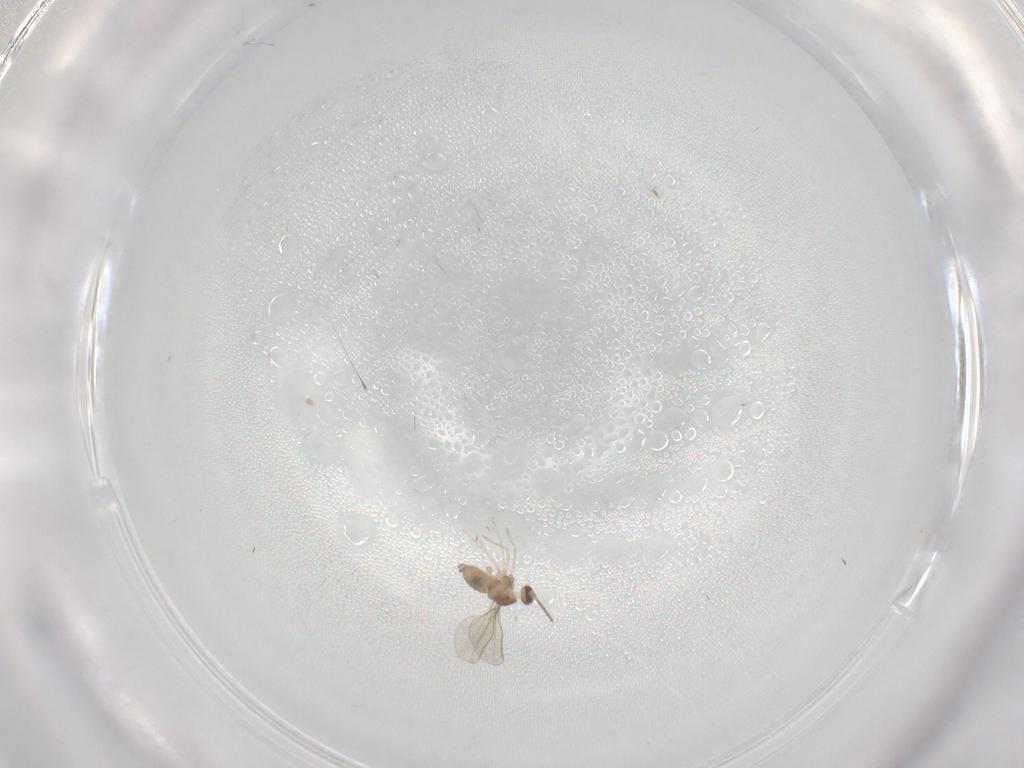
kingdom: Animalia
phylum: Arthropoda
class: Insecta
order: Diptera
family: Cecidomyiidae
